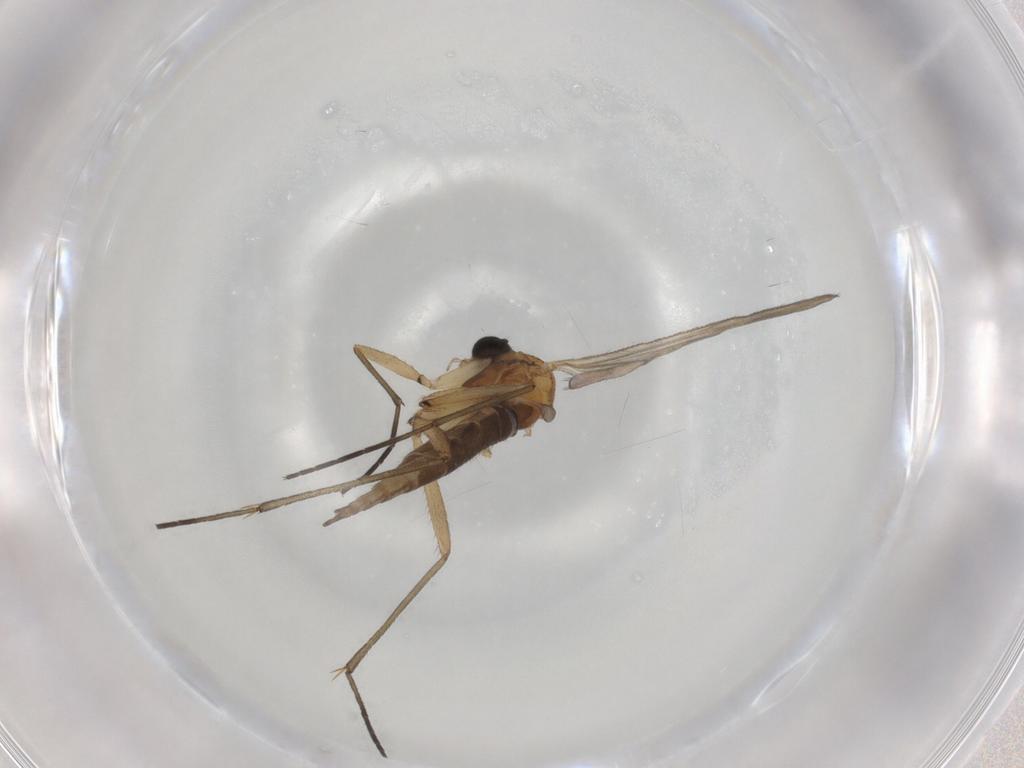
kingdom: Animalia
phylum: Arthropoda
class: Insecta
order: Diptera
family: Sciaridae
